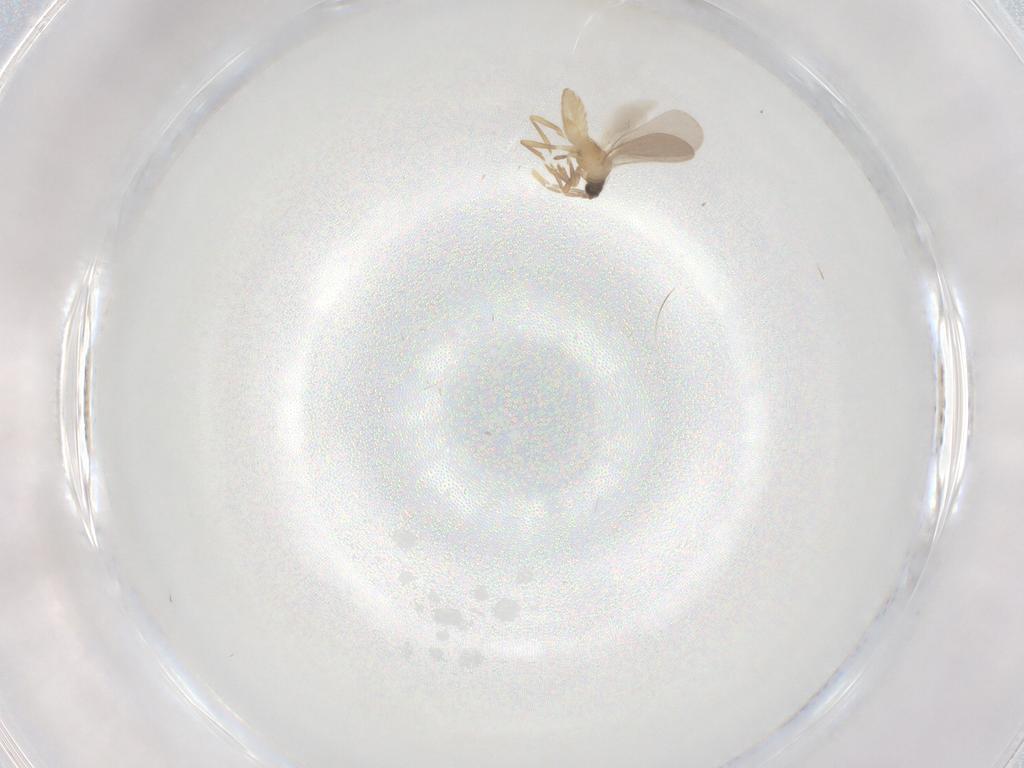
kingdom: Animalia
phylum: Arthropoda
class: Insecta
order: Hemiptera
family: Enicocephalidae
